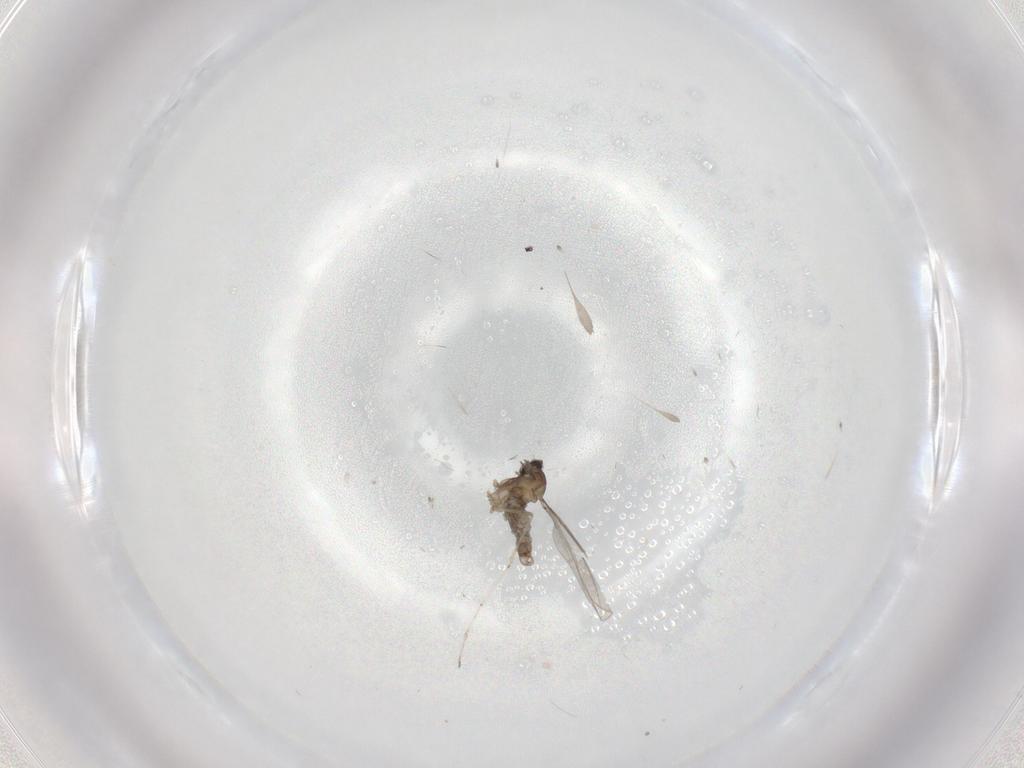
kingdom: Animalia
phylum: Arthropoda
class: Insecta
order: Diptera
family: Cecidomyiidae
